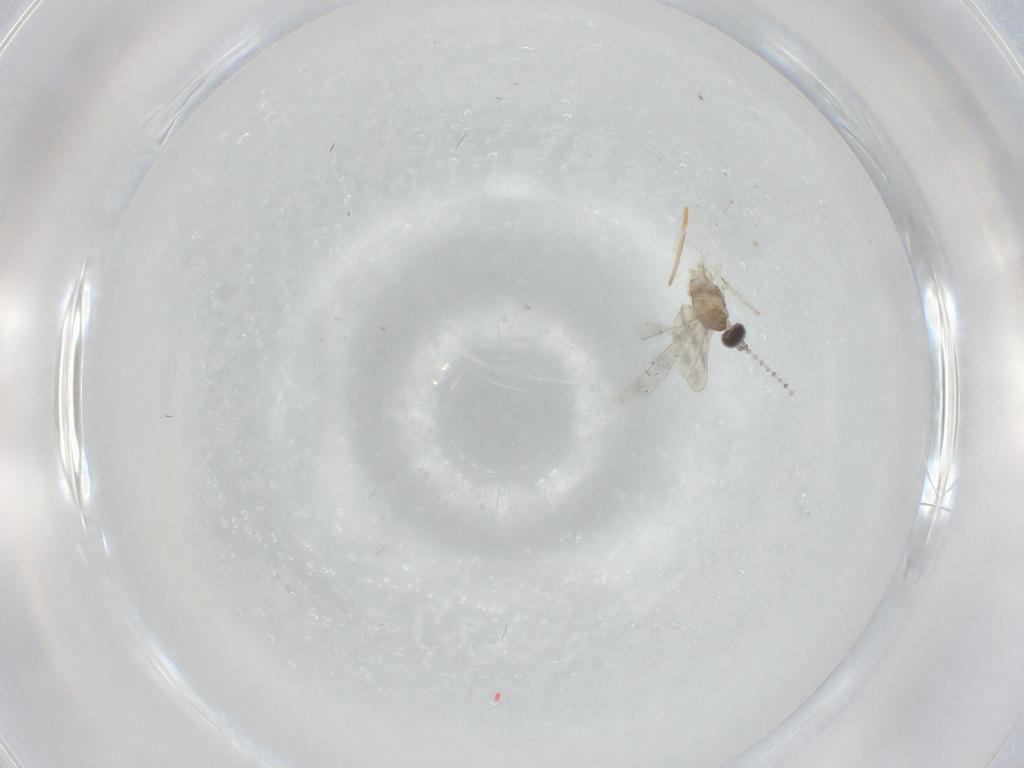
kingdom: Animalia
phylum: Arthropoda
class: Insecta
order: Diptera
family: Cecidomyiidae
